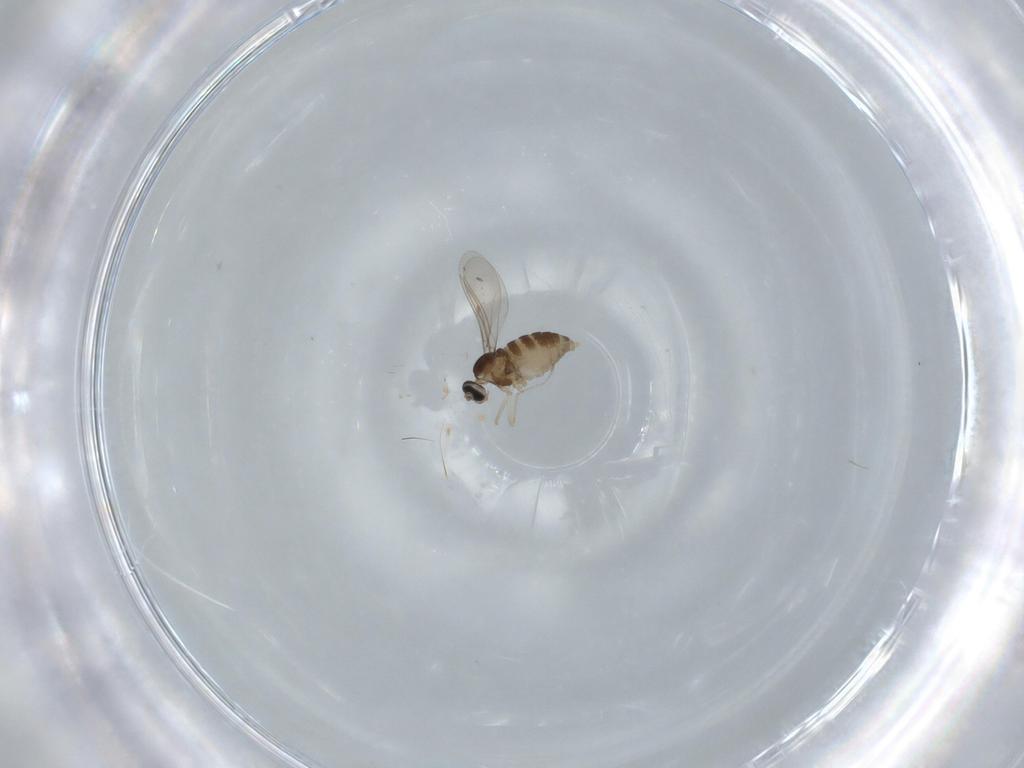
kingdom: Animalia
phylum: Arthropoda
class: Insecta
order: Diptera
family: Cecidomyiidae
